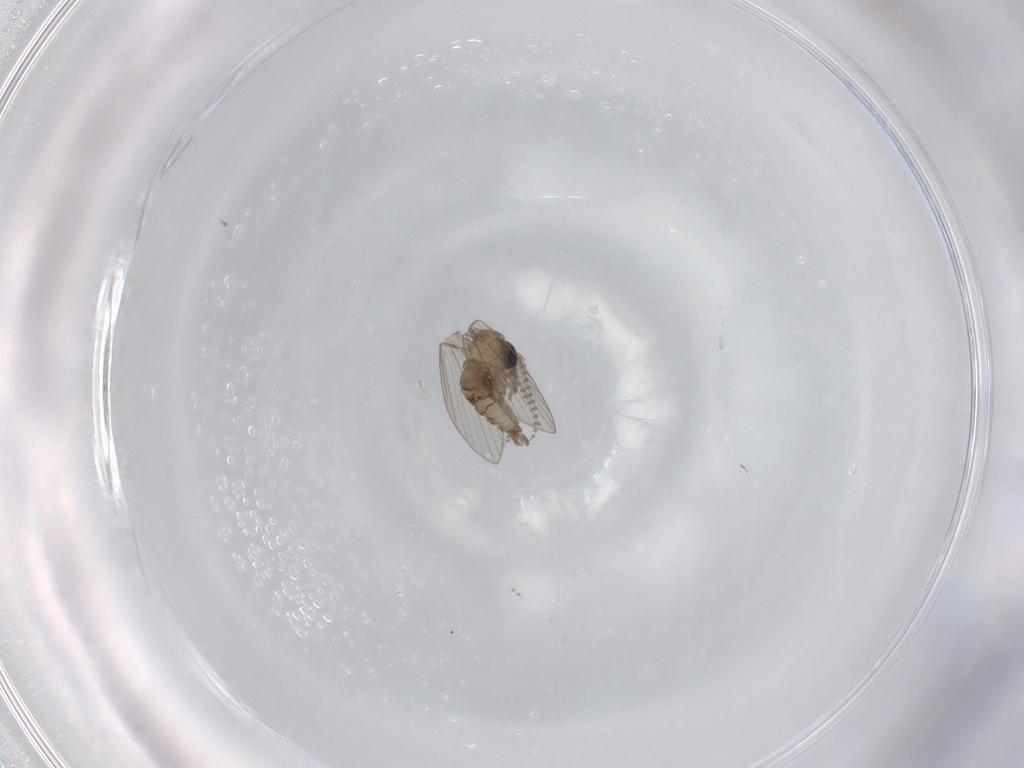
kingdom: Animalia
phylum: Arthropoda
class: Insecta
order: Diptera
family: Psychodidae
